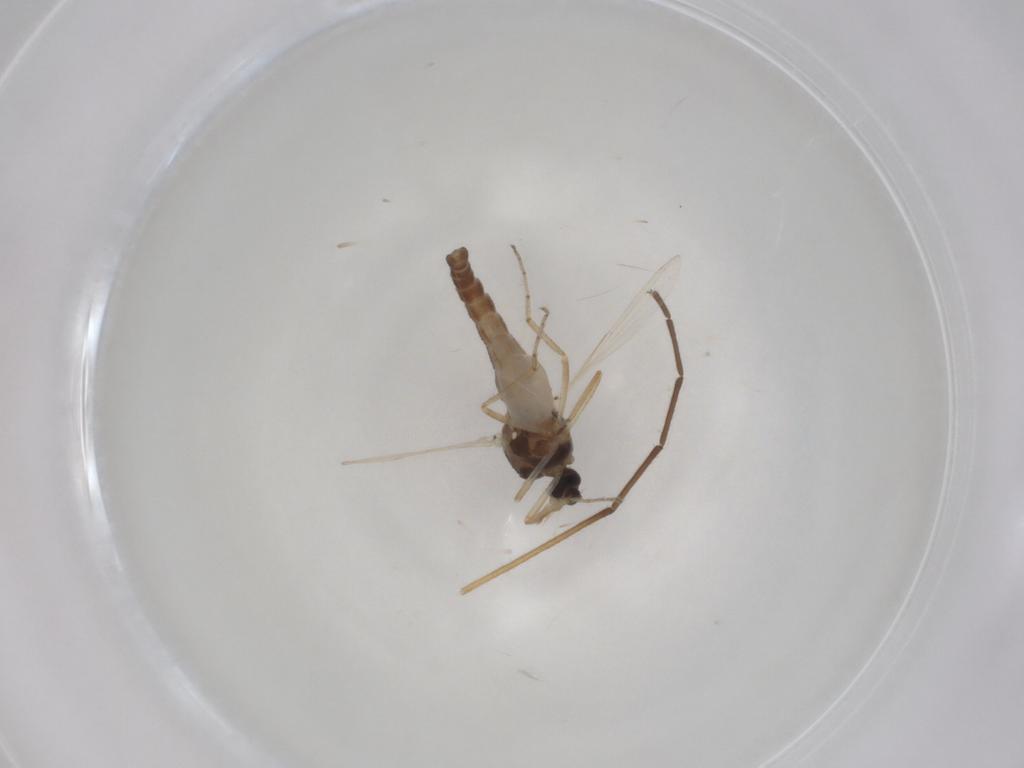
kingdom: Animalia
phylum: Arthropoda
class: Insecta
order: Diptera
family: Ceratopogonidae
